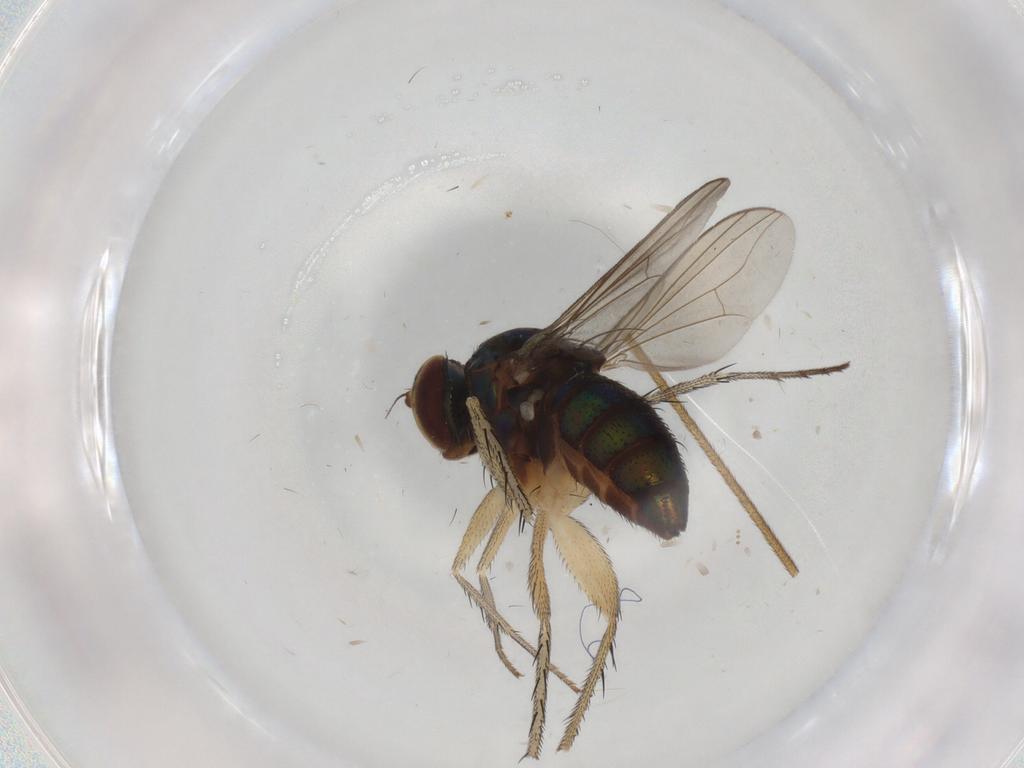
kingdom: Animalia
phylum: Arthropoda
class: Insecta
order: Diptera
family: Dolichopodidae
